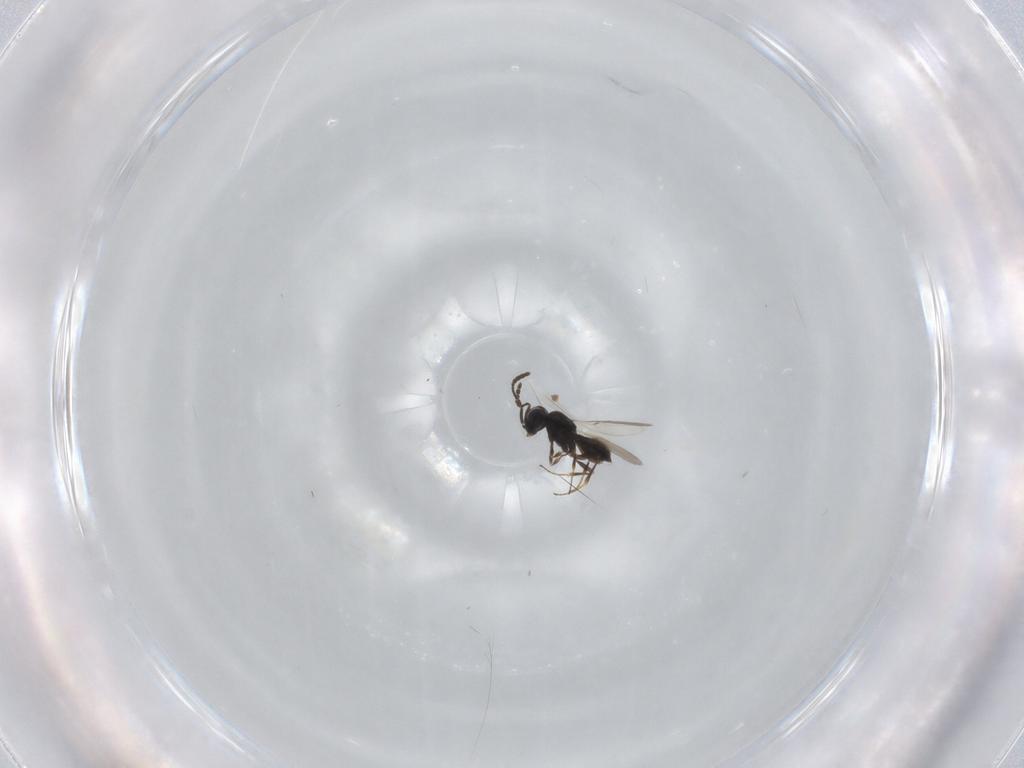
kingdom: Animalia
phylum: Arthropoda
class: Insecta
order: Hymenoptera
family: Scelionidae
